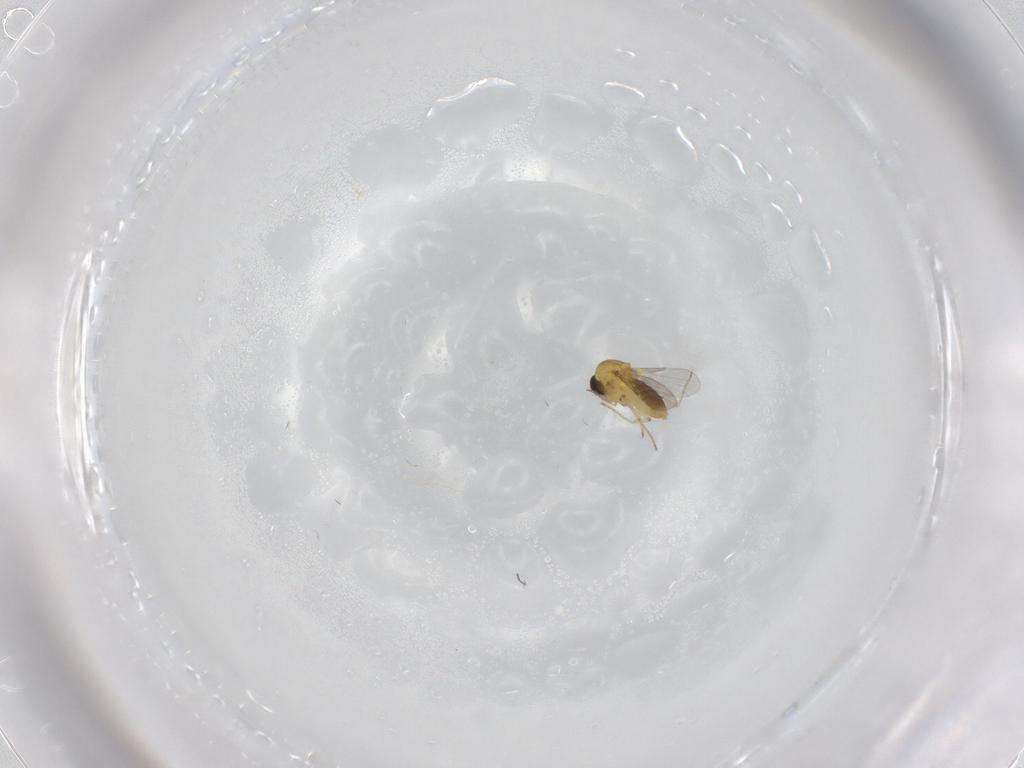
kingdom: Animalia
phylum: Arthropoda
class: Insecta
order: Diptera
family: Ceratopogonidae
